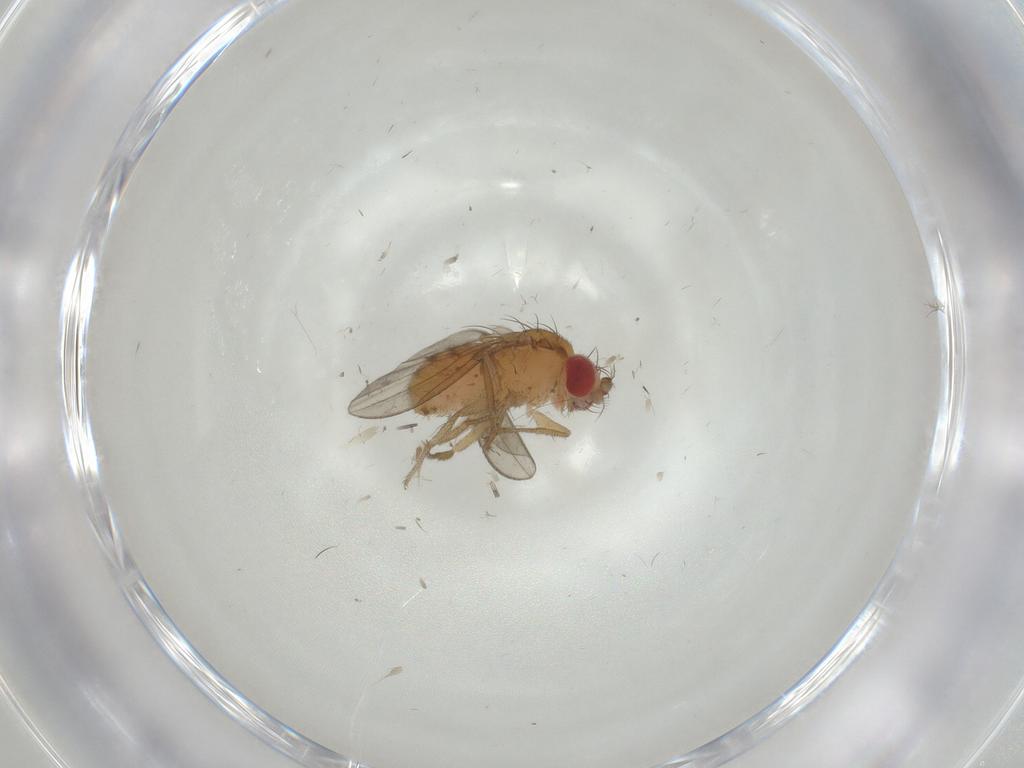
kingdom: Animalia
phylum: Arthropoda
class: Insecta
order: Diptera
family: Drosophilidae
